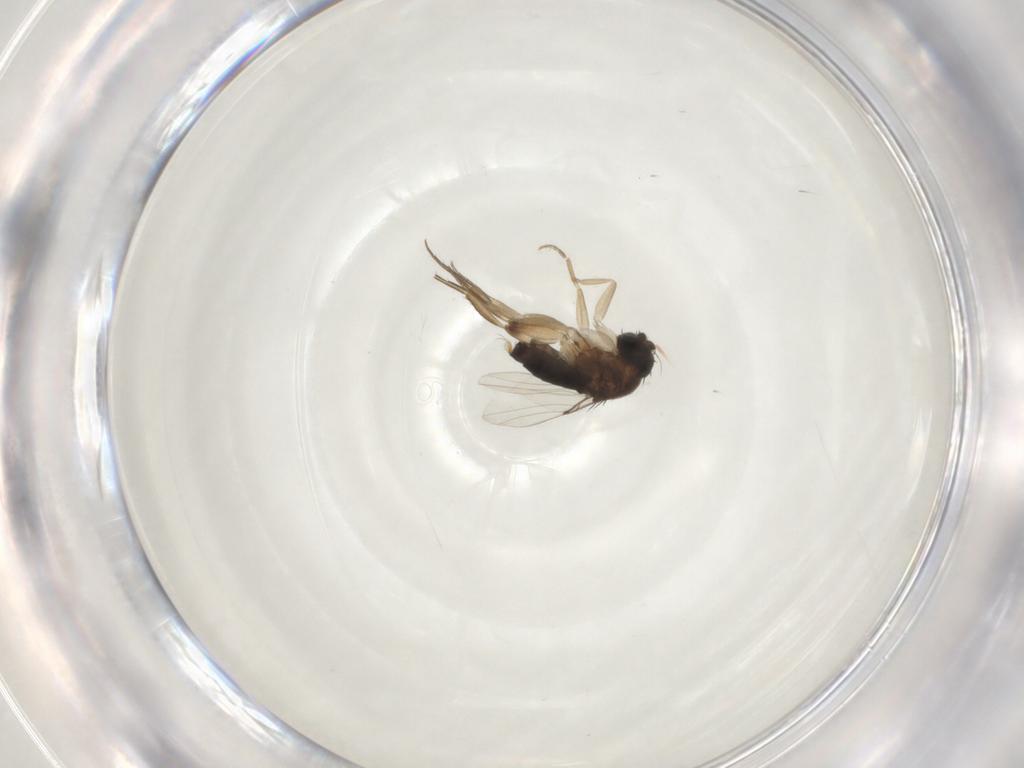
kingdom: Animalia
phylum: Arthropoda
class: Insecta
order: Diptera
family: Phoridae
